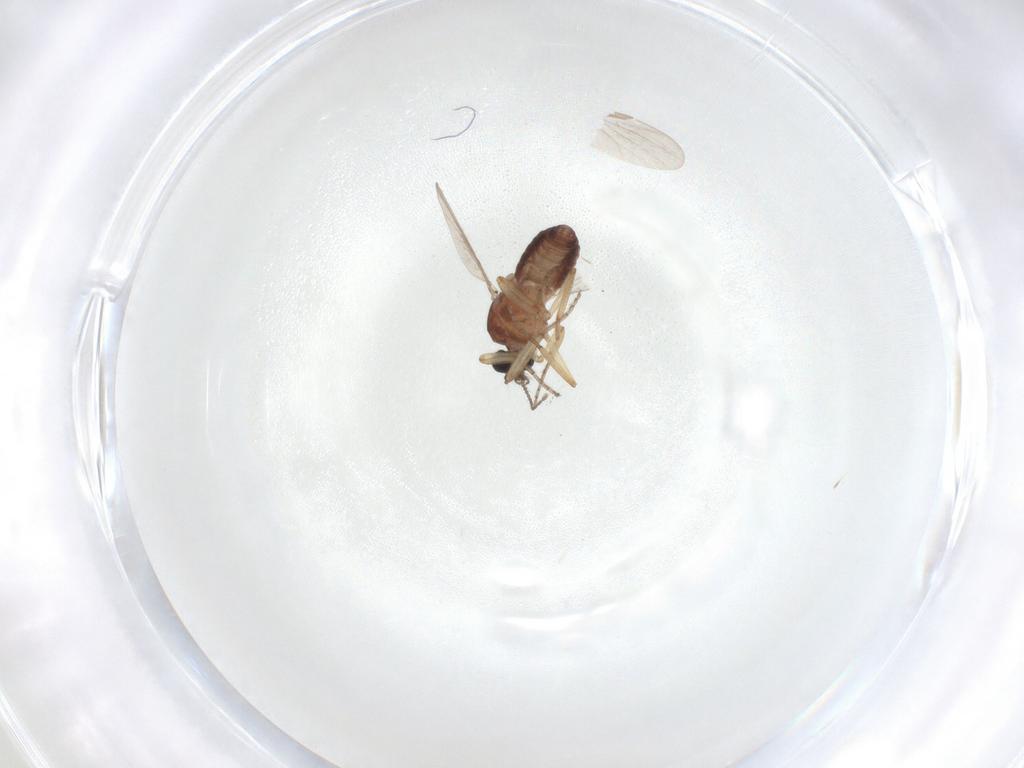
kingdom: Animalia
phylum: Arthropoda
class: Insecta
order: Diptera
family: Ceratopogonidae
